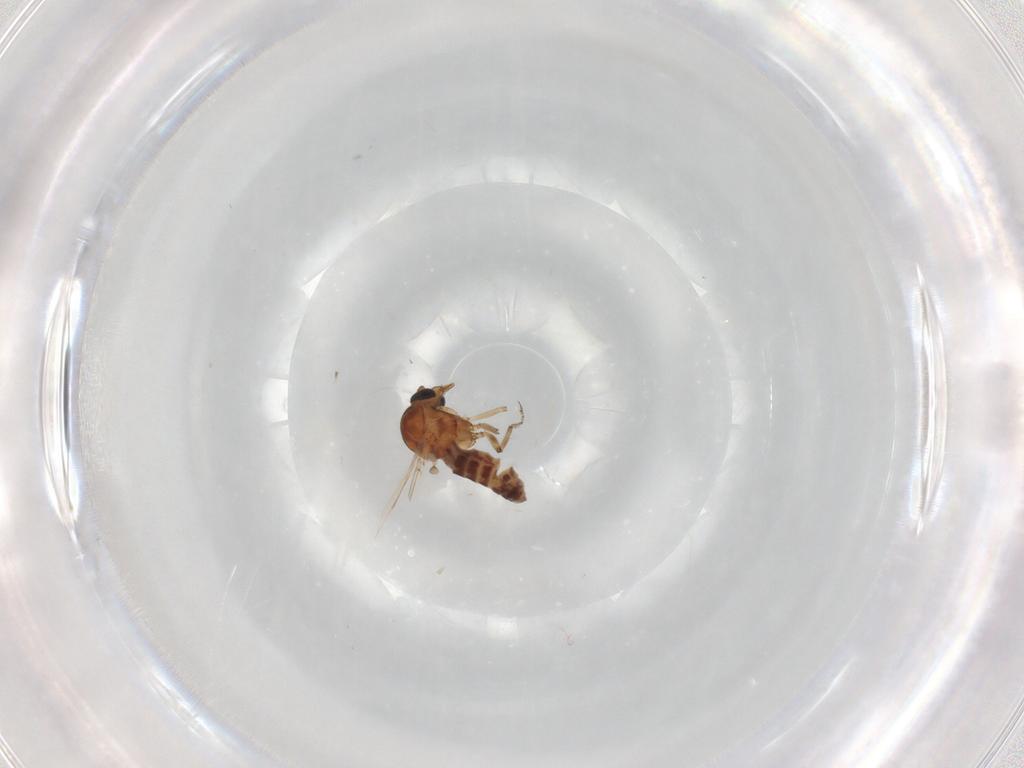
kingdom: Animalia
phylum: Arthropoda
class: Insecta
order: Diptera
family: Ceratopogonidae
